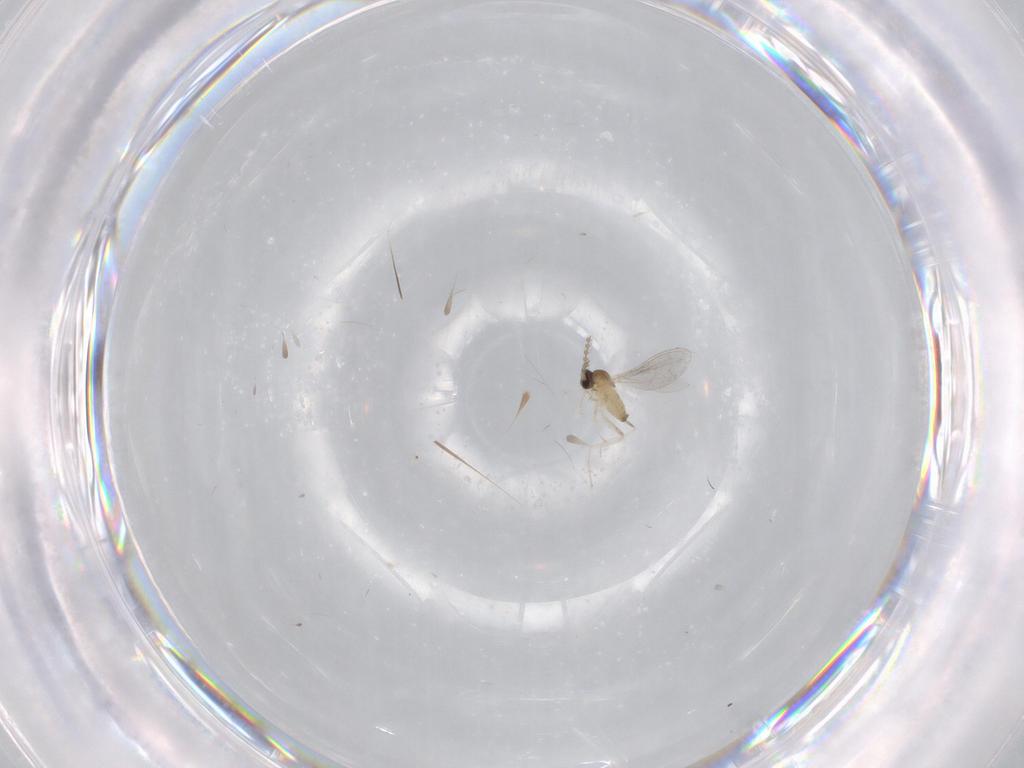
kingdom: Animalia
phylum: Arthropoda
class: Insecta
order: Diptera
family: Cecidomyiidae
